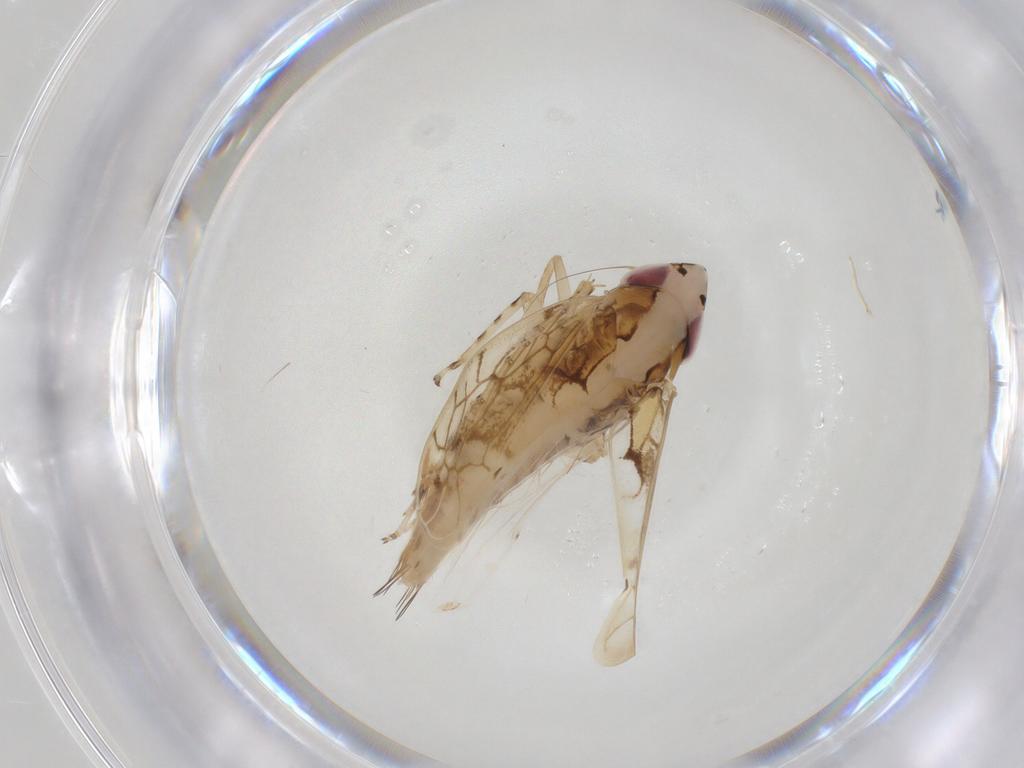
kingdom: Animalia
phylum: Arthropoda
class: Insecta
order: Hemiptera
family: Cicadellidae
